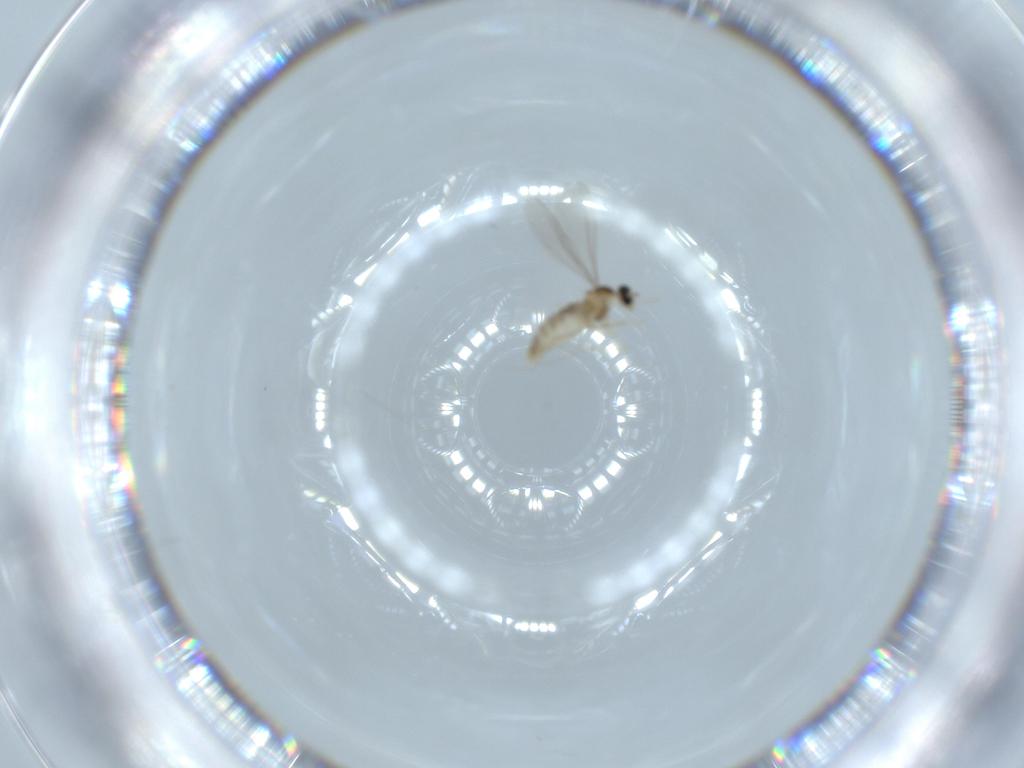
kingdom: Animalia
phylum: Arthropoda
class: Insecta
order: Diptera
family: Cecidomyiidae
